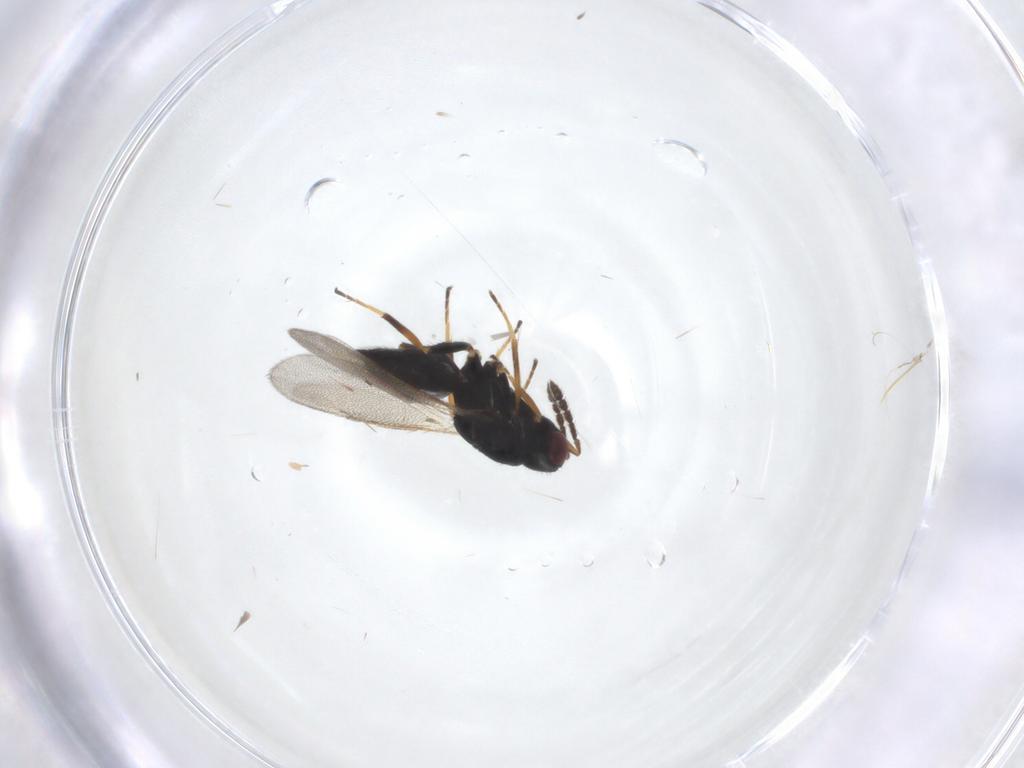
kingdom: Animalia
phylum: Arthropoda
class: Insecta
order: Hymenoptera
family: Eulophidae
